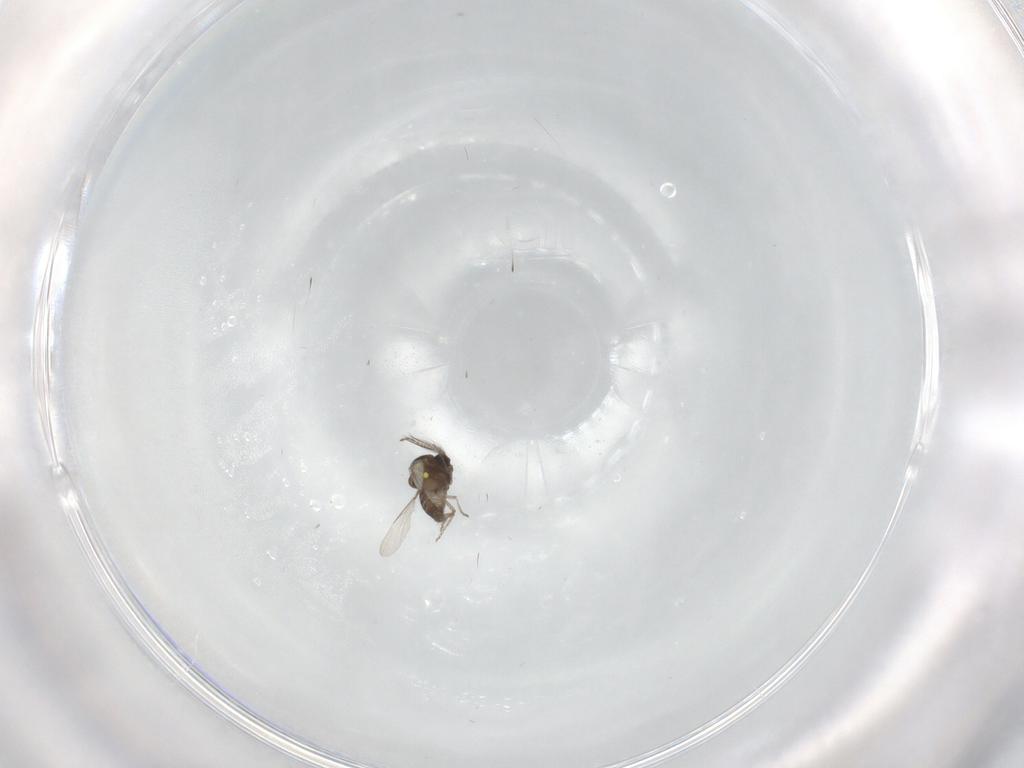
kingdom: Animalia
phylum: Arthropoda
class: Insecta
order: Diptera
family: Ceratopogonidae
